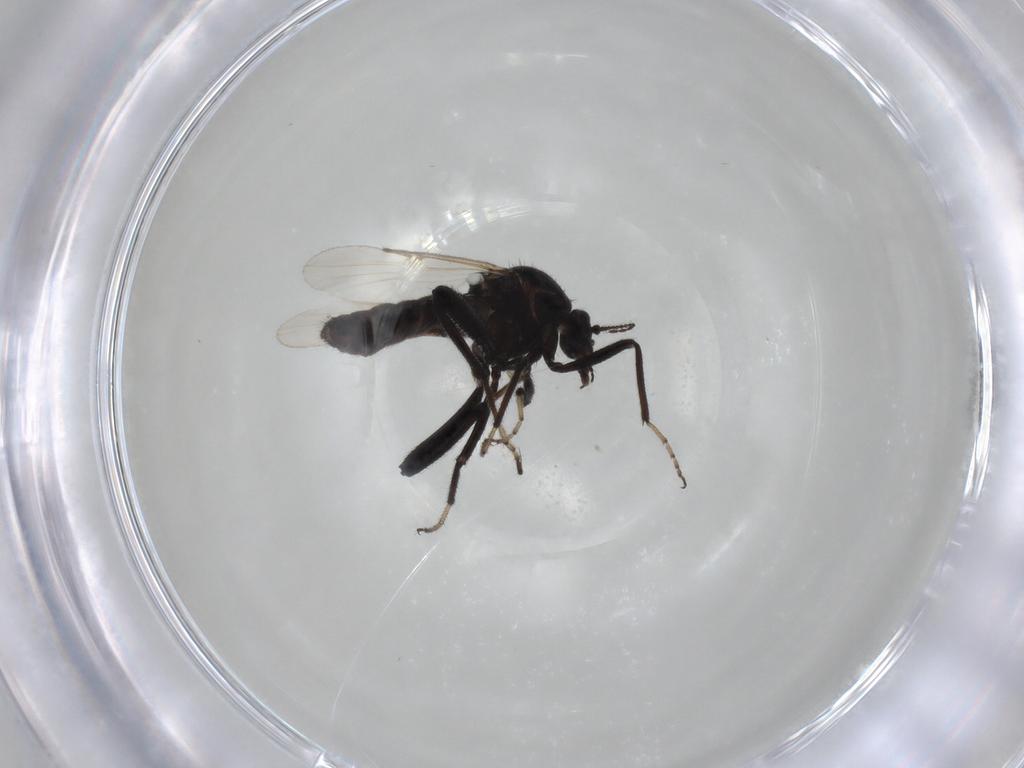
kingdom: Animalia
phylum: Arthropoda
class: Insecta
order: Diptera
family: Ceratopogonidae
